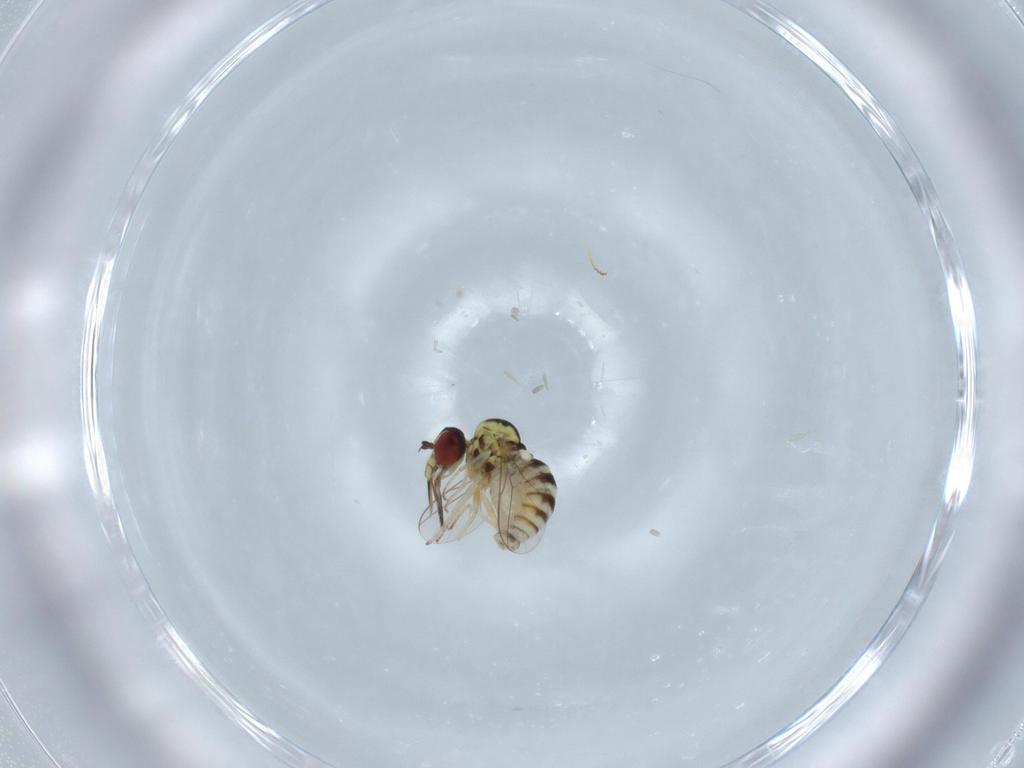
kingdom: Animalia
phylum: Arthropoda
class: Insecta
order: Diptera
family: Bombyliidae
